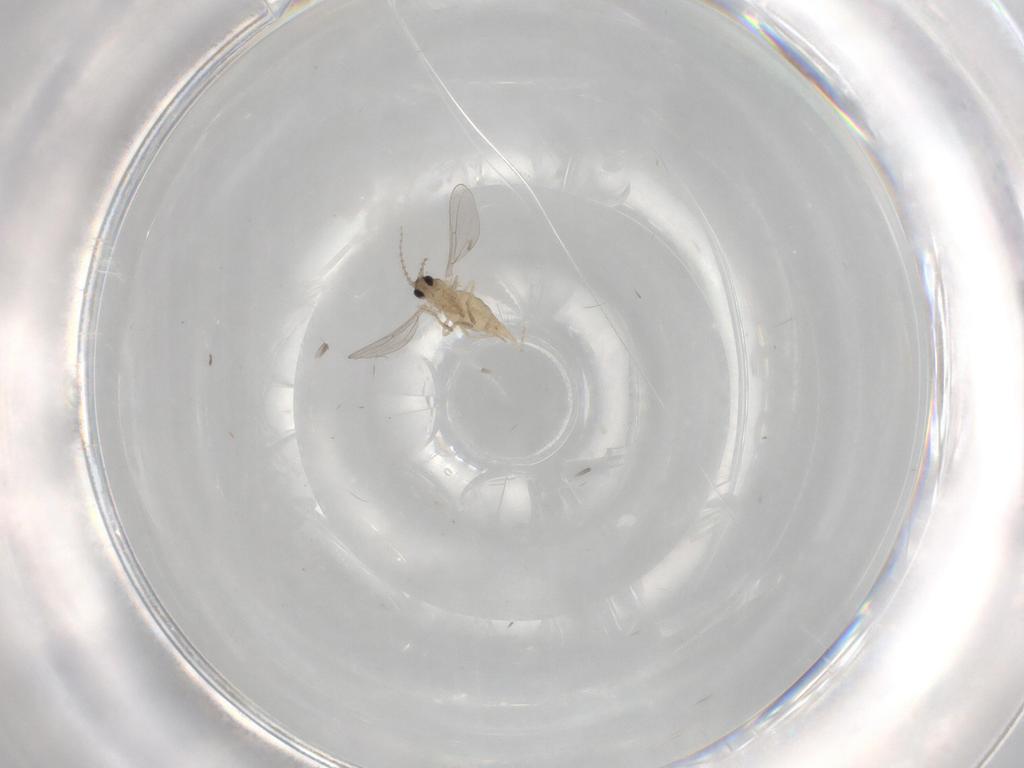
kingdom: Animalia
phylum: Arthropoda
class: Insecta
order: Diptera
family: Cecidomyiidae
